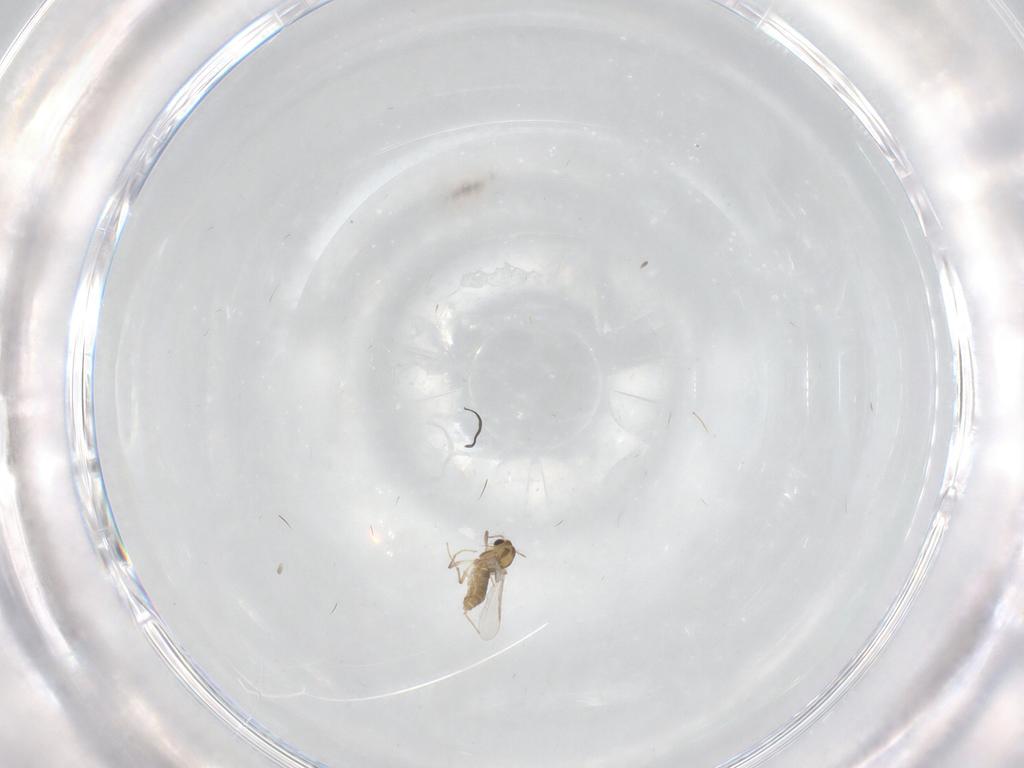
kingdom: Animalia
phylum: Arthropoda
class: Insecta
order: Diptera
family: Chironomidae
